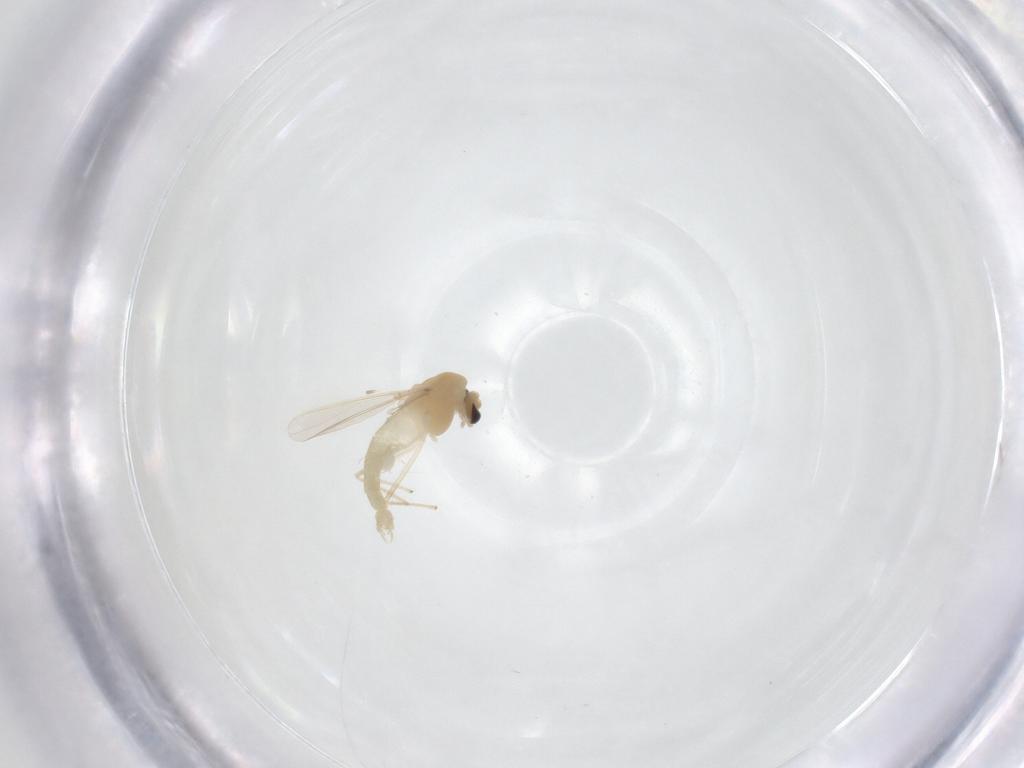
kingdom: Animalia
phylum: Arthropoda
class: Insecta
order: Diptera
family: Chironomidae
